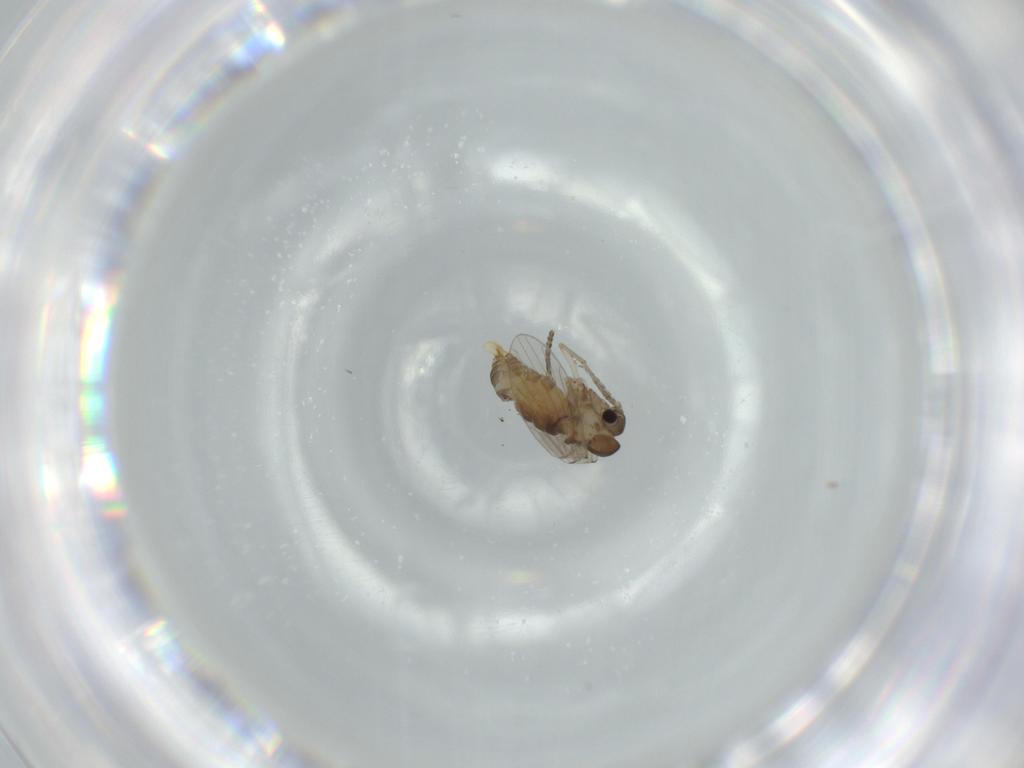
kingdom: Animalia
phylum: Arthropoda
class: Insecta
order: Diptera
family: Psychodidae
